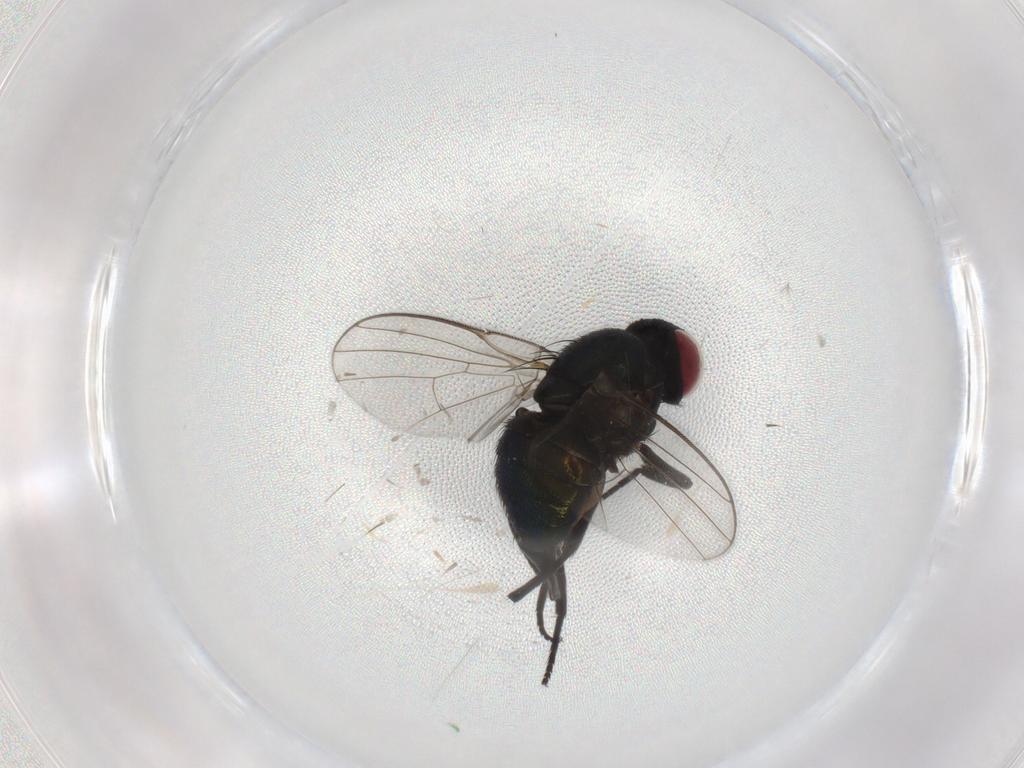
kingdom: Animalia
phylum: Arthropoda
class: Insecta
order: Diptera
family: Agromyzidae
